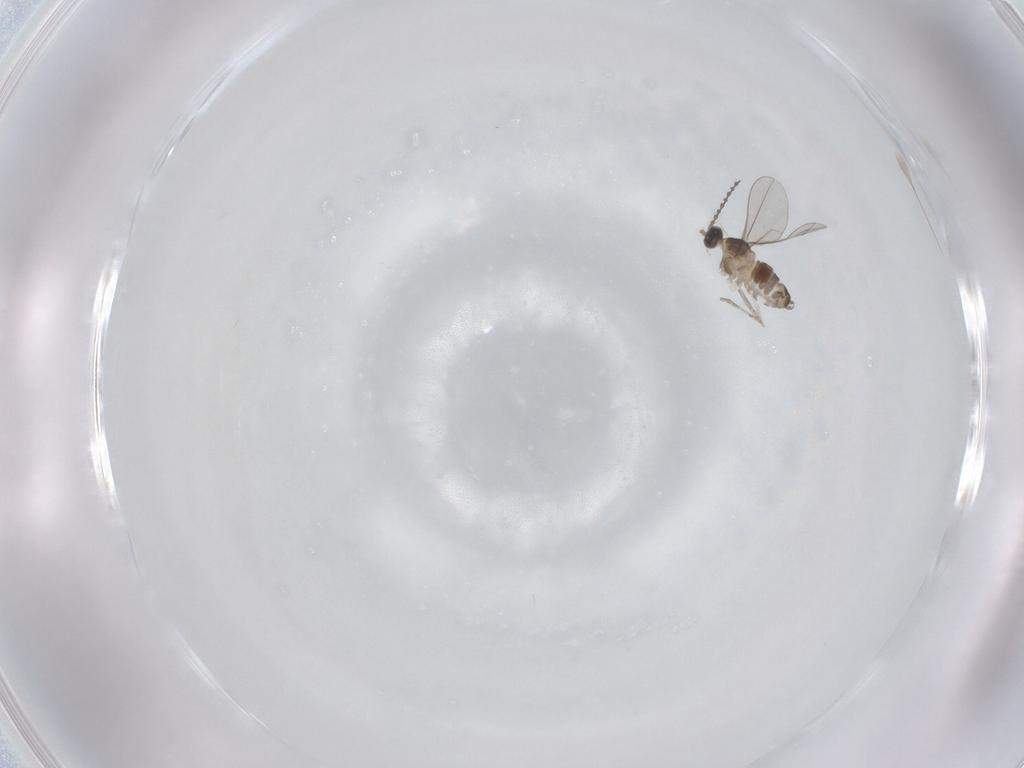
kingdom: Animalia
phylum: Arthropoda
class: Insecta
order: Diptera
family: Cecidomyiidae
